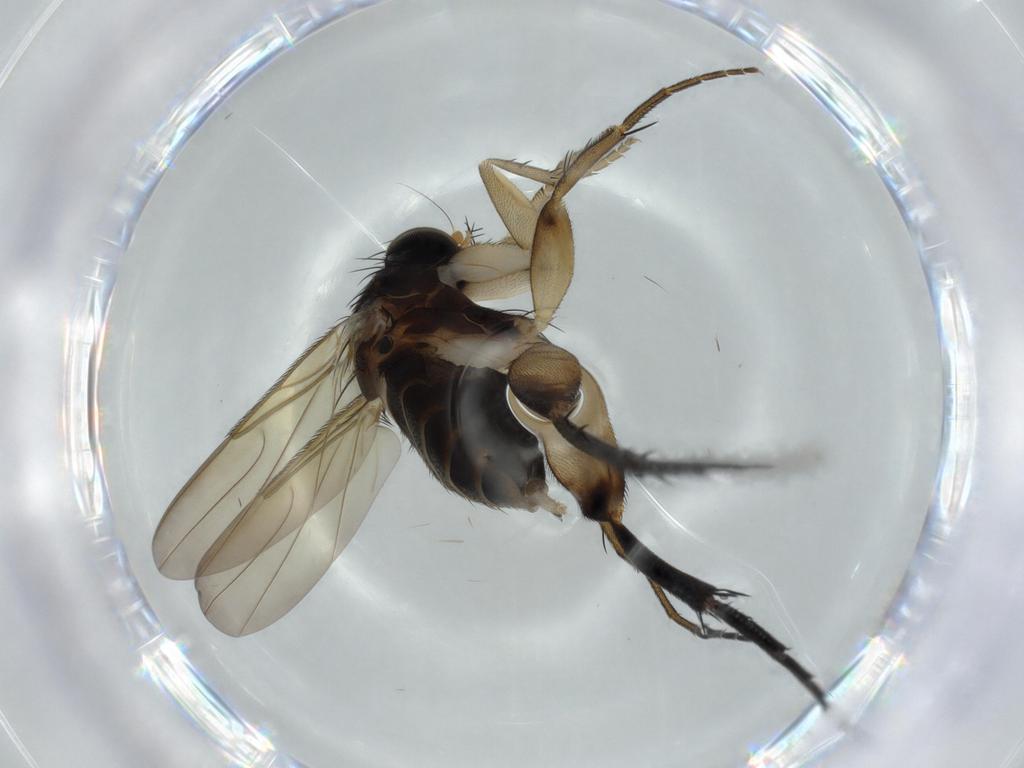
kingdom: Animalia
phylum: Arthropoda
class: Insecta
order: Diptera
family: Phoridae
